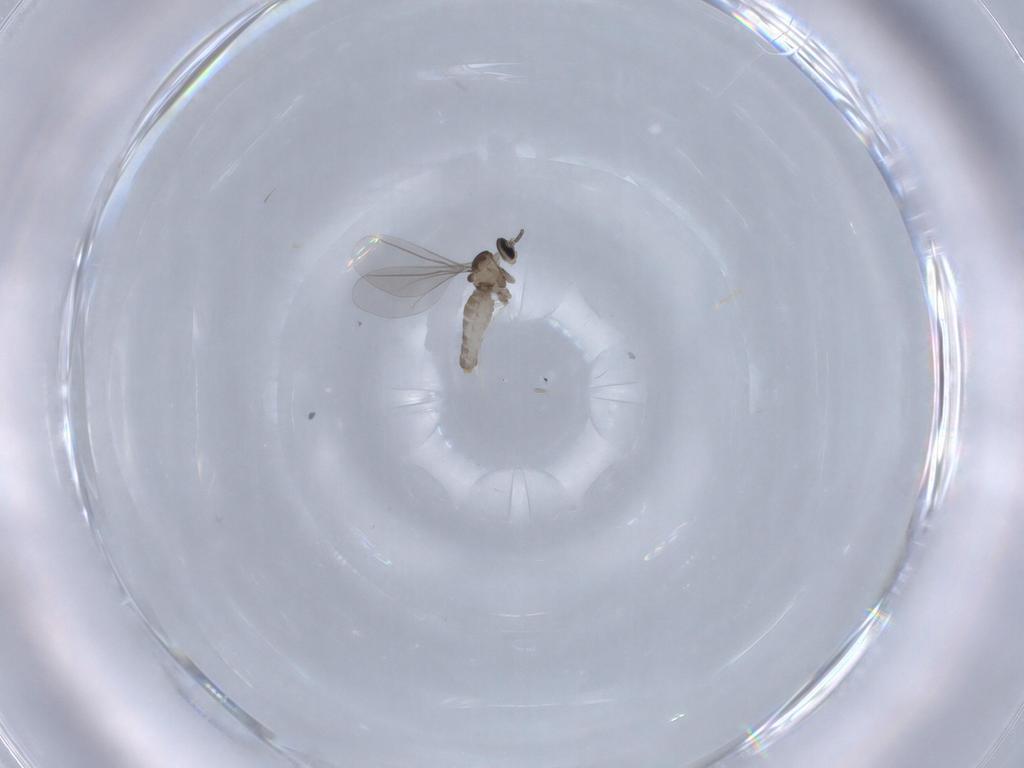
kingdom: Animalia
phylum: Arthropoda
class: Insecta
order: Diptera
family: Cecidomyiidae
